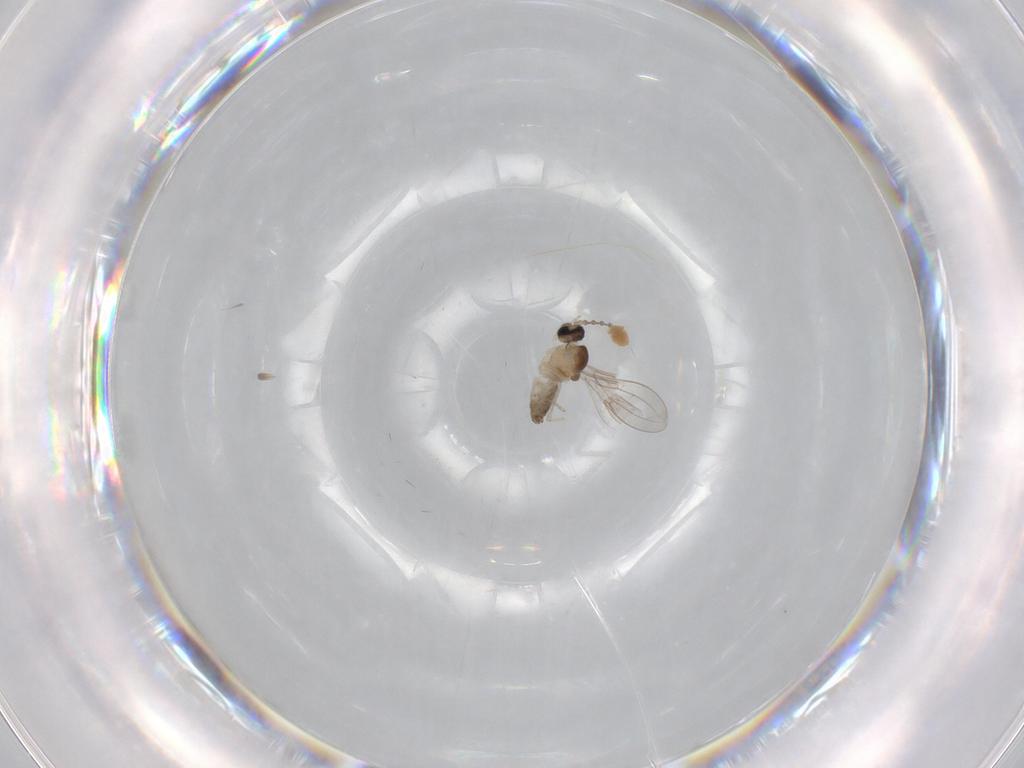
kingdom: Animalia
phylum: Arthropoda
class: Insecta
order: Diptera
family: Cecidomyiidae
